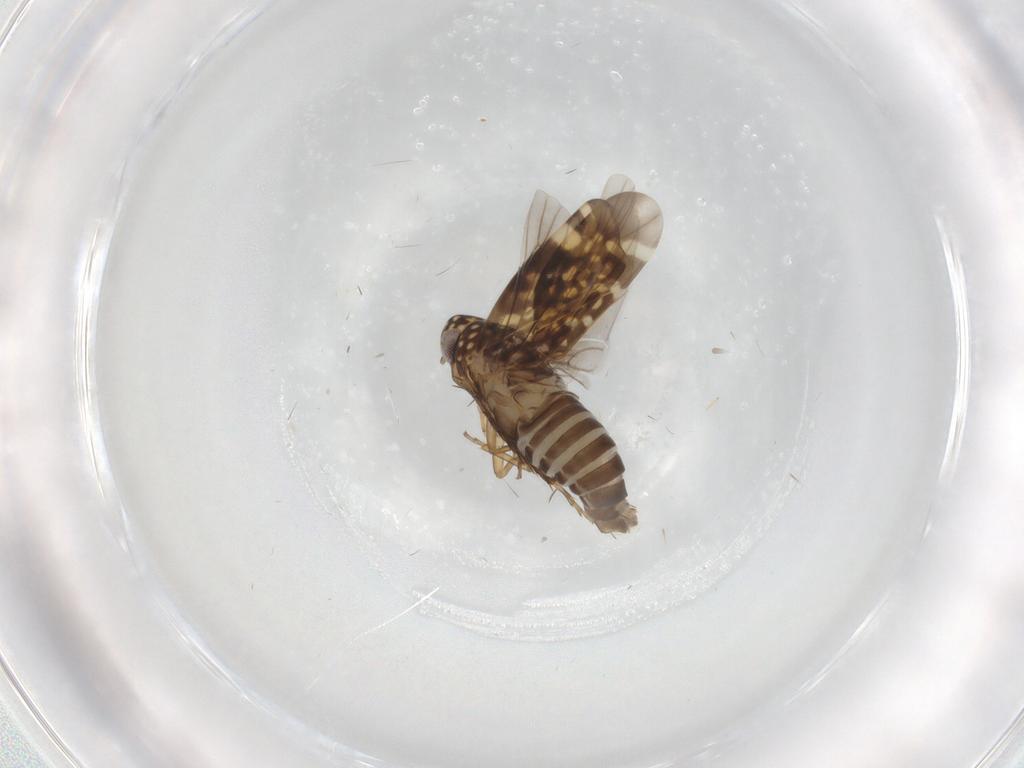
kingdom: Animalia
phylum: Arthropoda
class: Insecta
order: Hemiptera
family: Cicadellidae
